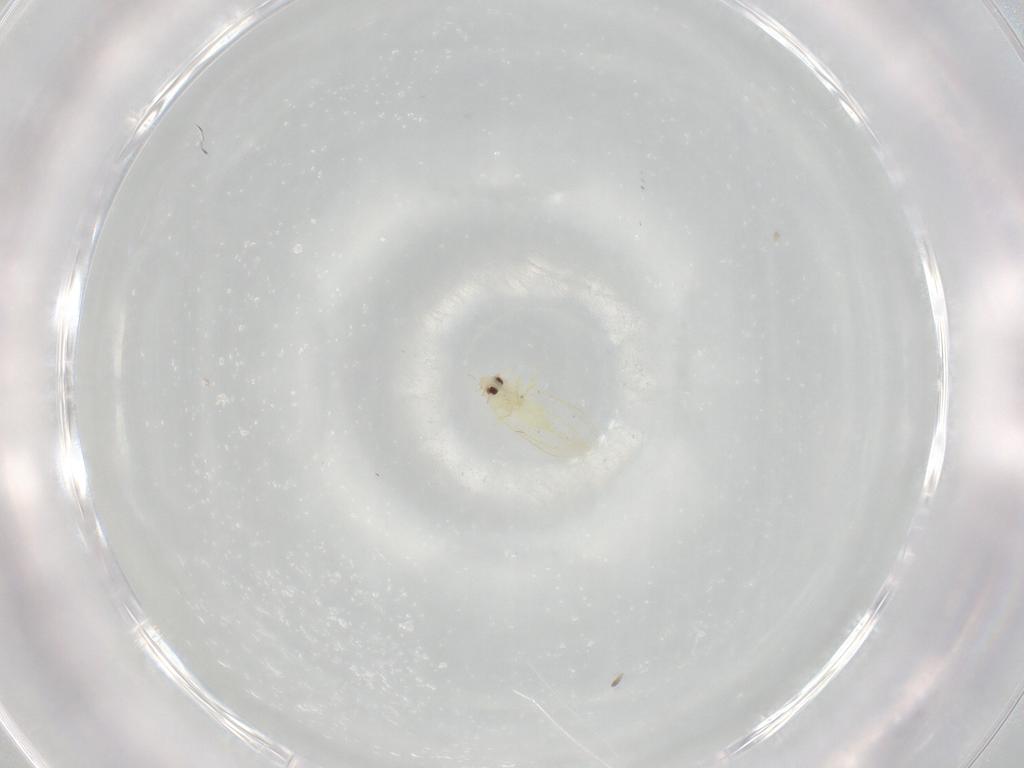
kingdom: Animalia
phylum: Arthropoda
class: Insecta
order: Hemiptera
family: Aleyrodidae
